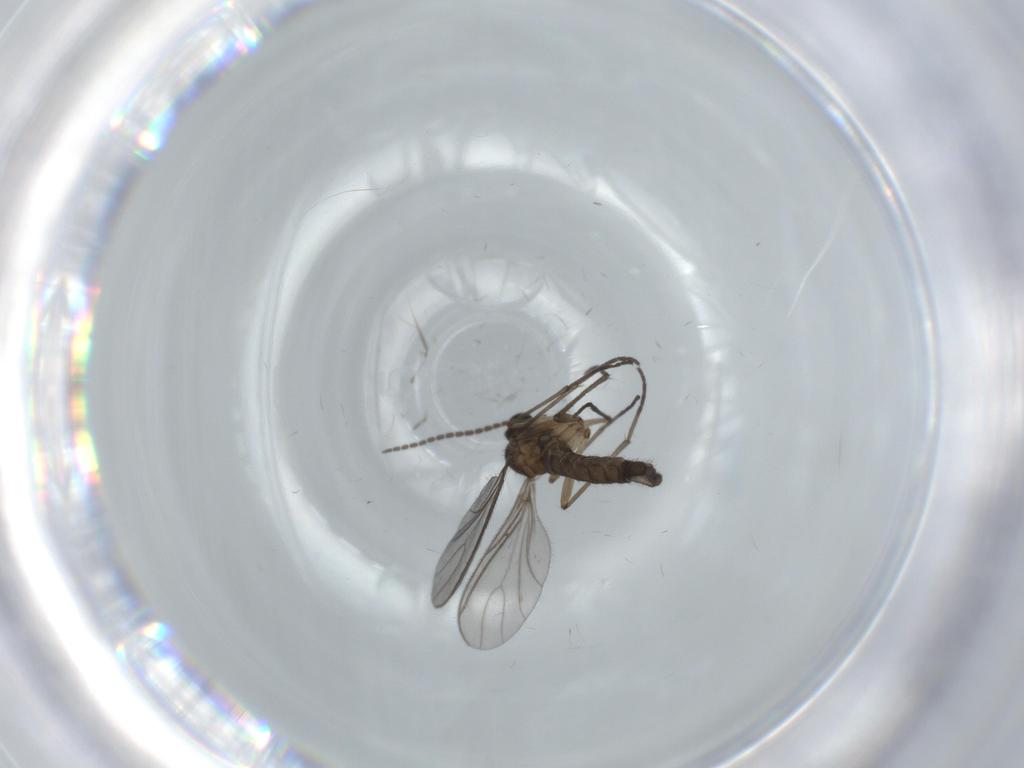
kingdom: Animalia
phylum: Arthropoda
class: Insecta
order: Diptera
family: Sciaridae
